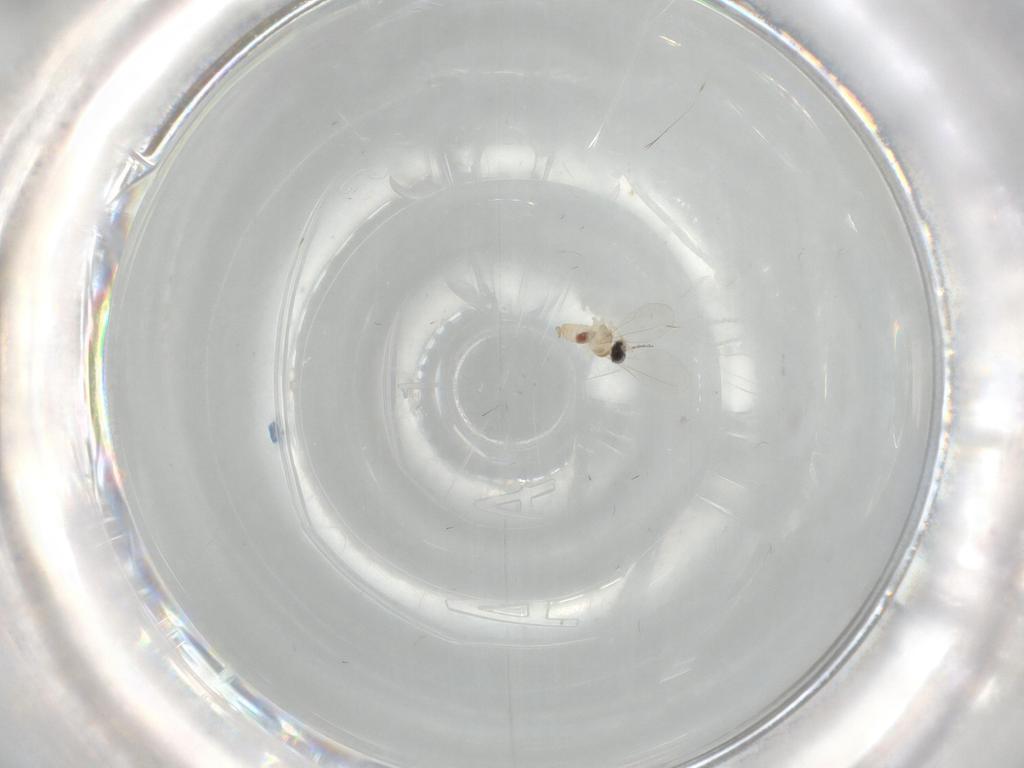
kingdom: Animalia
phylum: Arthropoda
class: Insecta
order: Diptera
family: Cecidomyiidae
